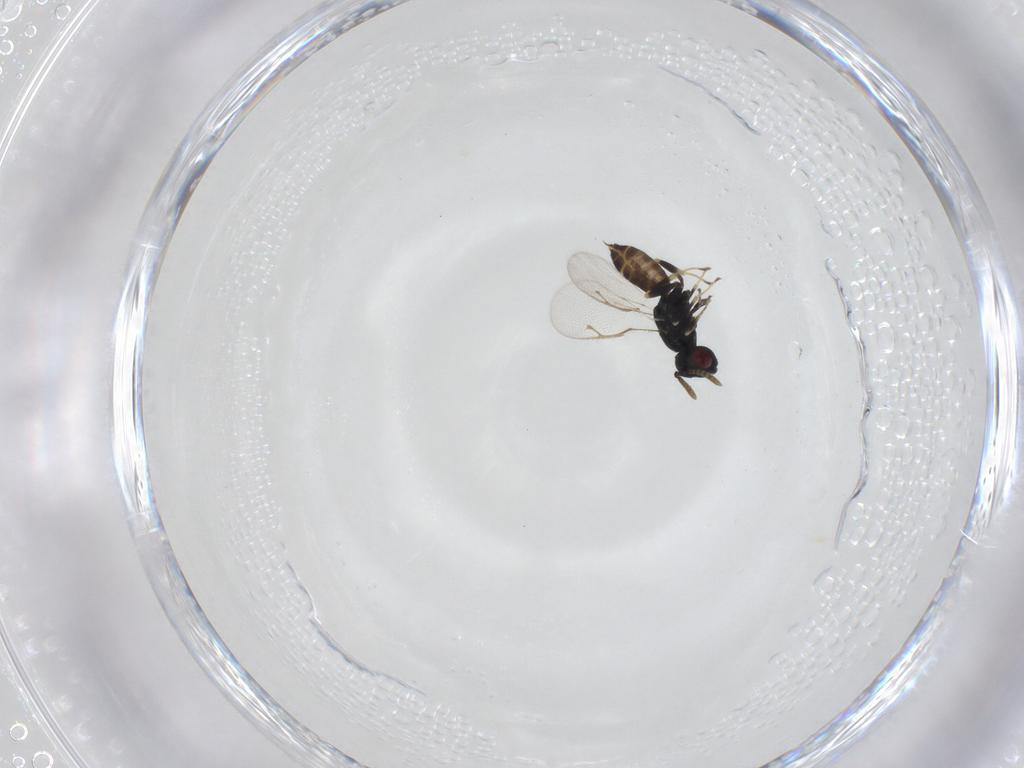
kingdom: Animalia
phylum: Arthropoda
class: Insecta
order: Hymenoptera
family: Pteromalidae
